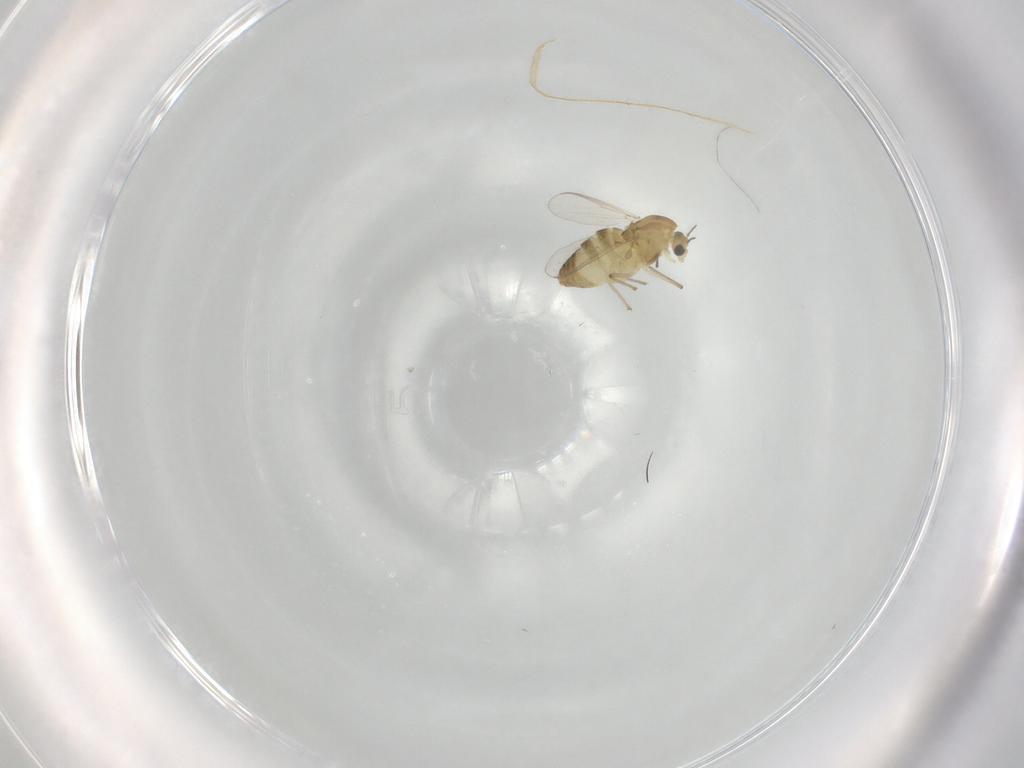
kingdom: Animalia
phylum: Arthropoda
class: Insecta
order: Diptera
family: Chironomidae
